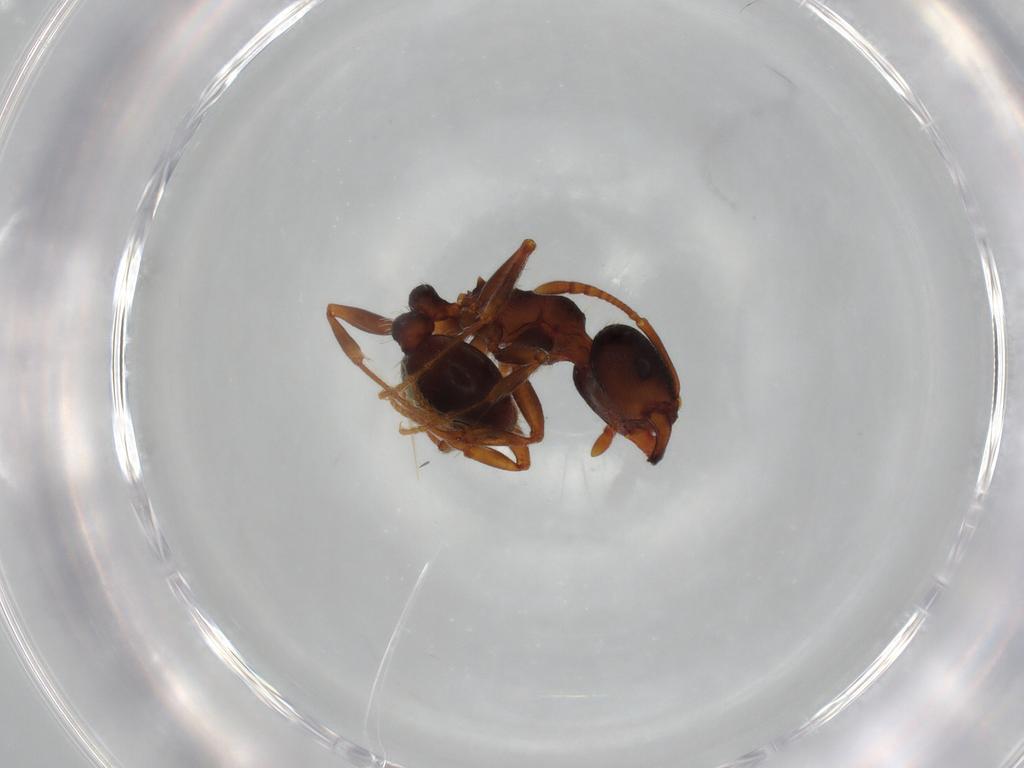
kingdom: Animalia
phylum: Arthropoda
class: Insecta
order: Hymenoptera
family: Formicidae
